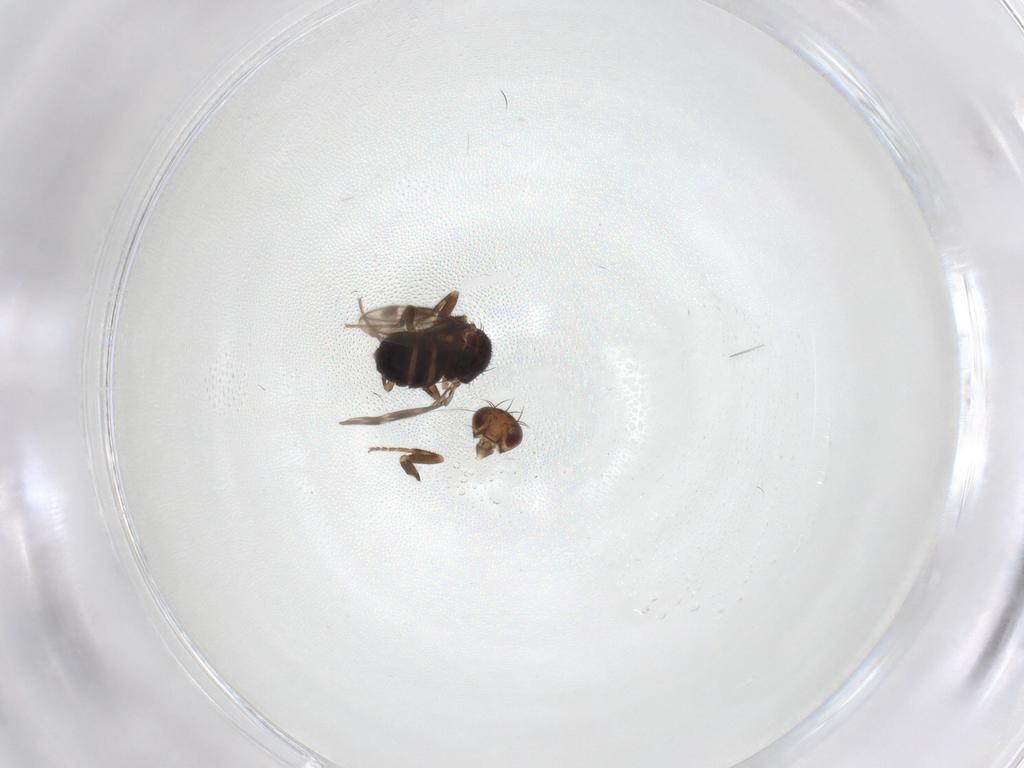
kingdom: Animalia
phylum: Arthropoda
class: Insecta
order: Diptera
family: Sphaeroceridae
